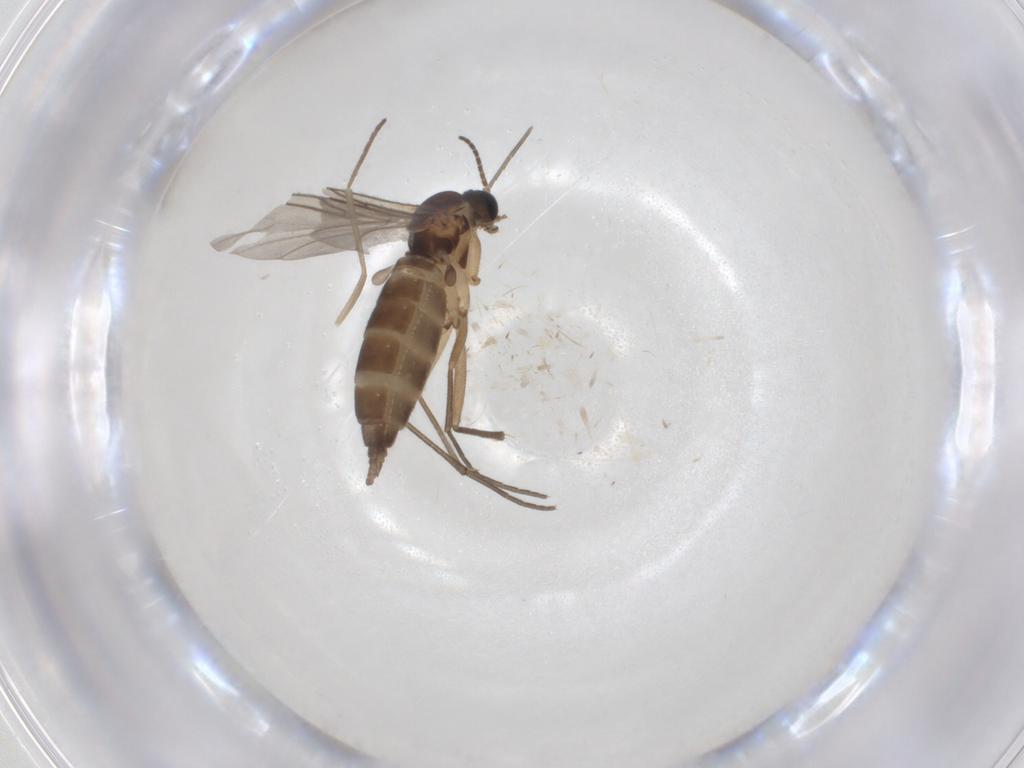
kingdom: Animalia
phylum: Arthropoda
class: Insecta
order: Diptera
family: Cecidomyiidae
